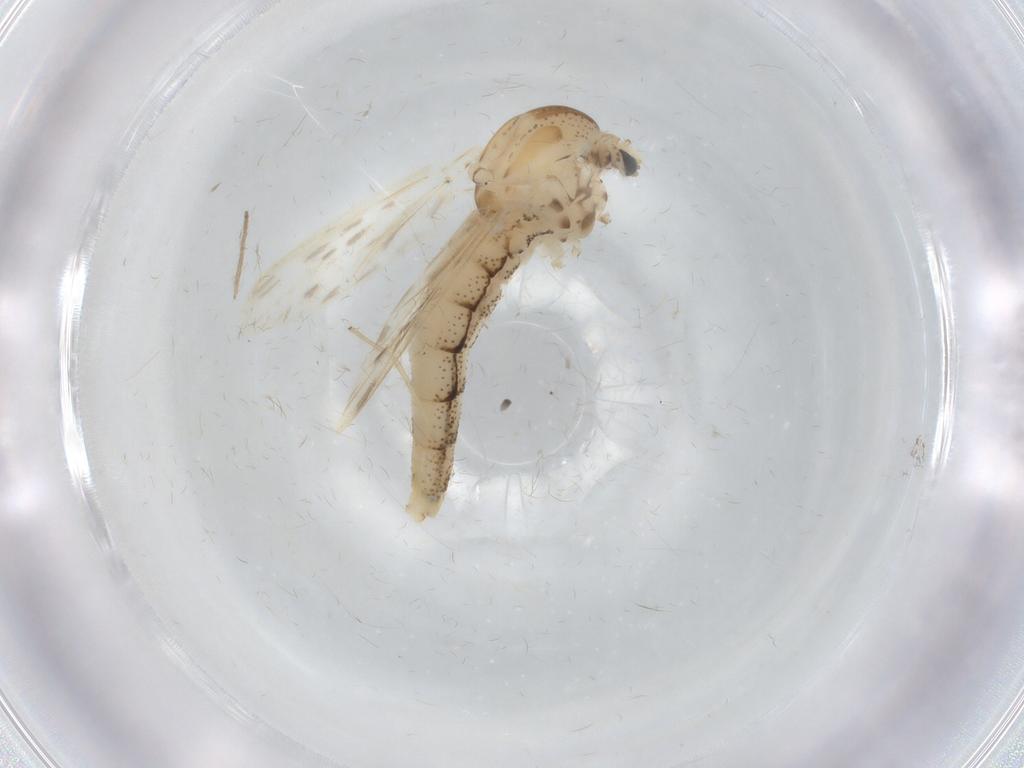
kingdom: Animalia
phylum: Arthropoda
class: Insecta
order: Diptera
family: Chaoboridae
